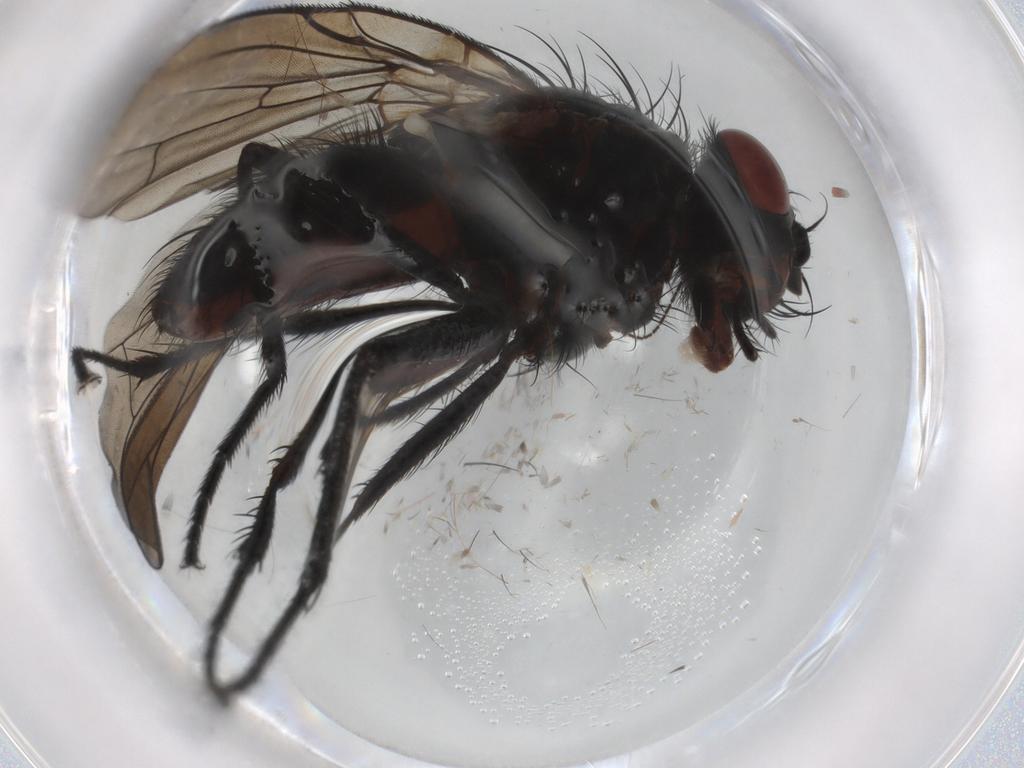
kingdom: Animalia
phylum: Arthropoda
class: Insecta
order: Diptera
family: Anthomyiidae
